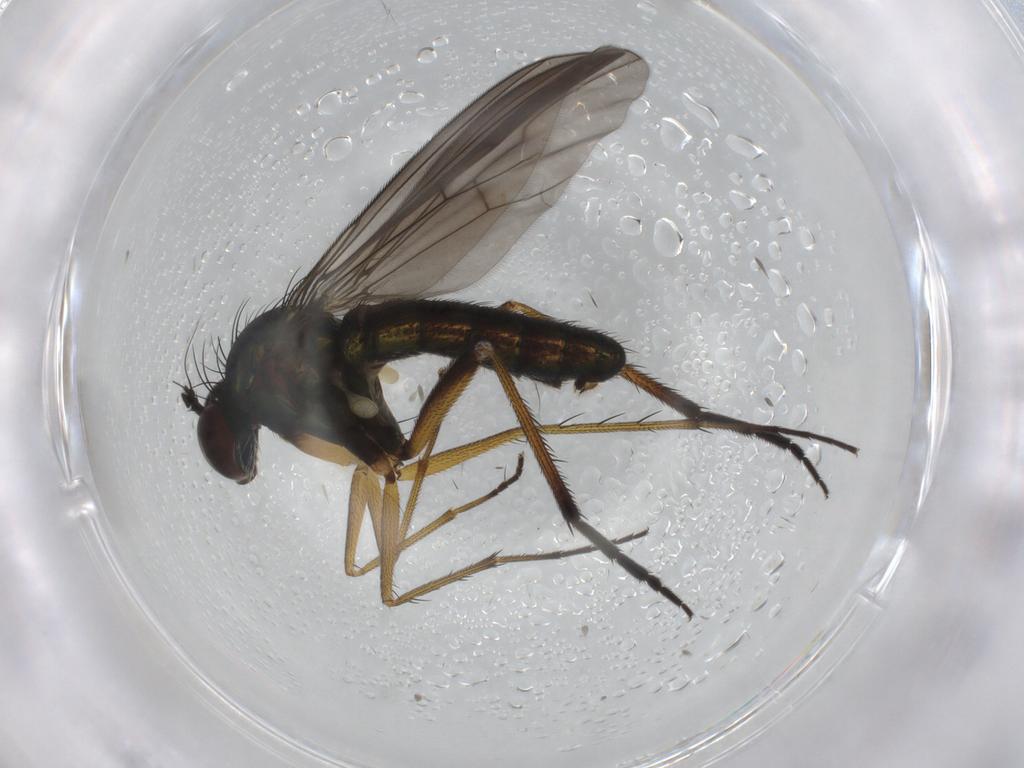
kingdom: Animalia
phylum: Arthropoda
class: Insecta
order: Diptera
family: Dolichopodidae
